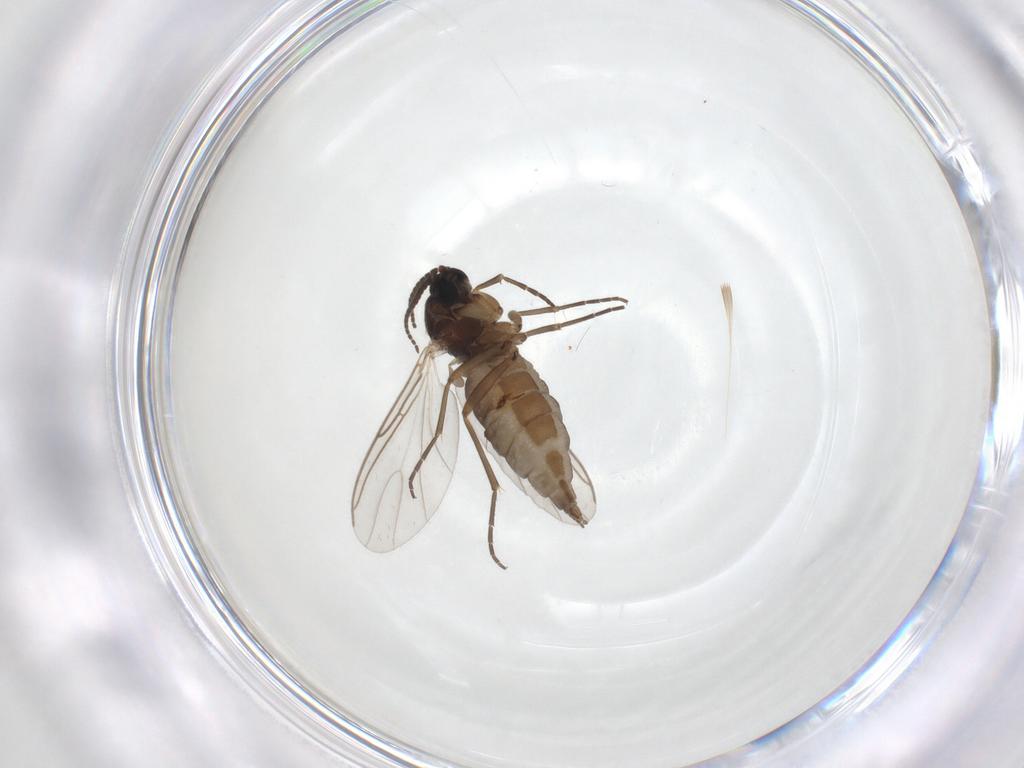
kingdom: Animalia
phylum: Arthropoda
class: Insecta
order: Diptera
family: Sciaridae
